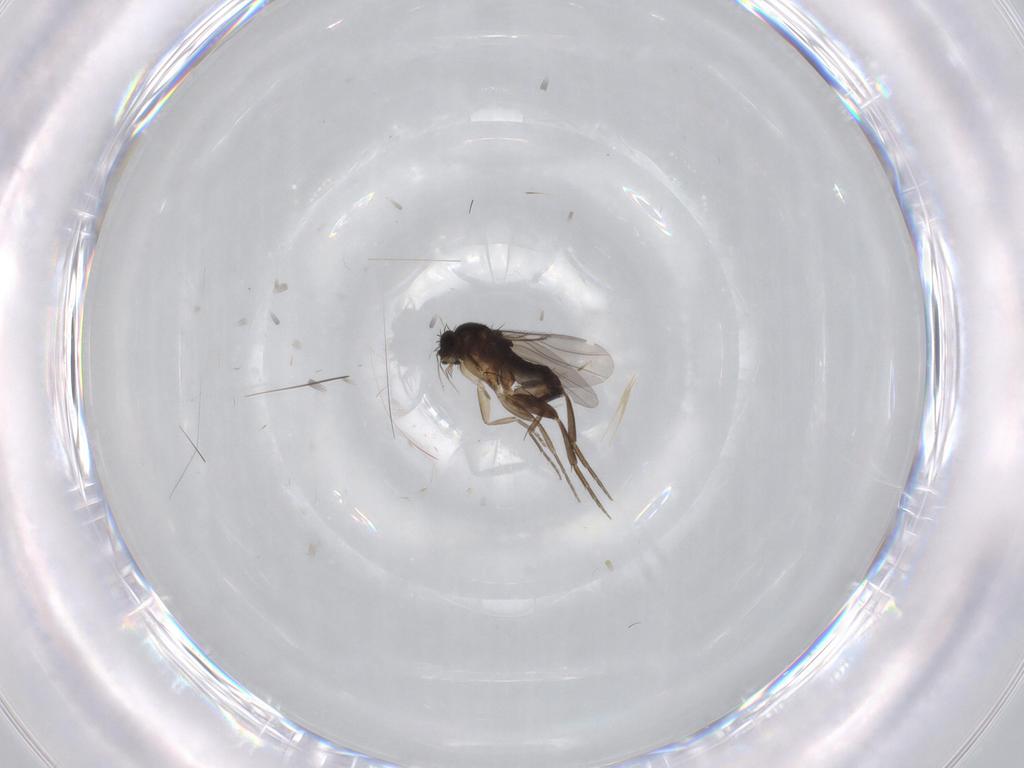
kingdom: Animalia
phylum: Arthropoda
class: Insecta
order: Diptera
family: Phoridae
